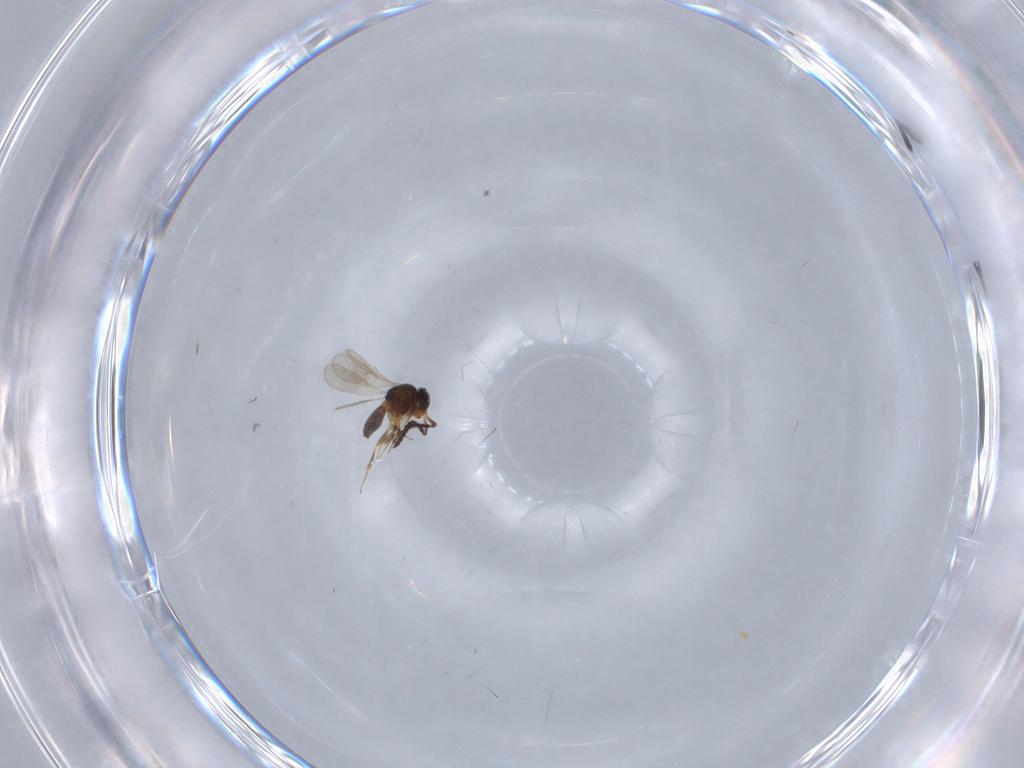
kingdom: Animalia
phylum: Arthropoda
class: Insecta
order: Hymenoptera
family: Scelionidae
